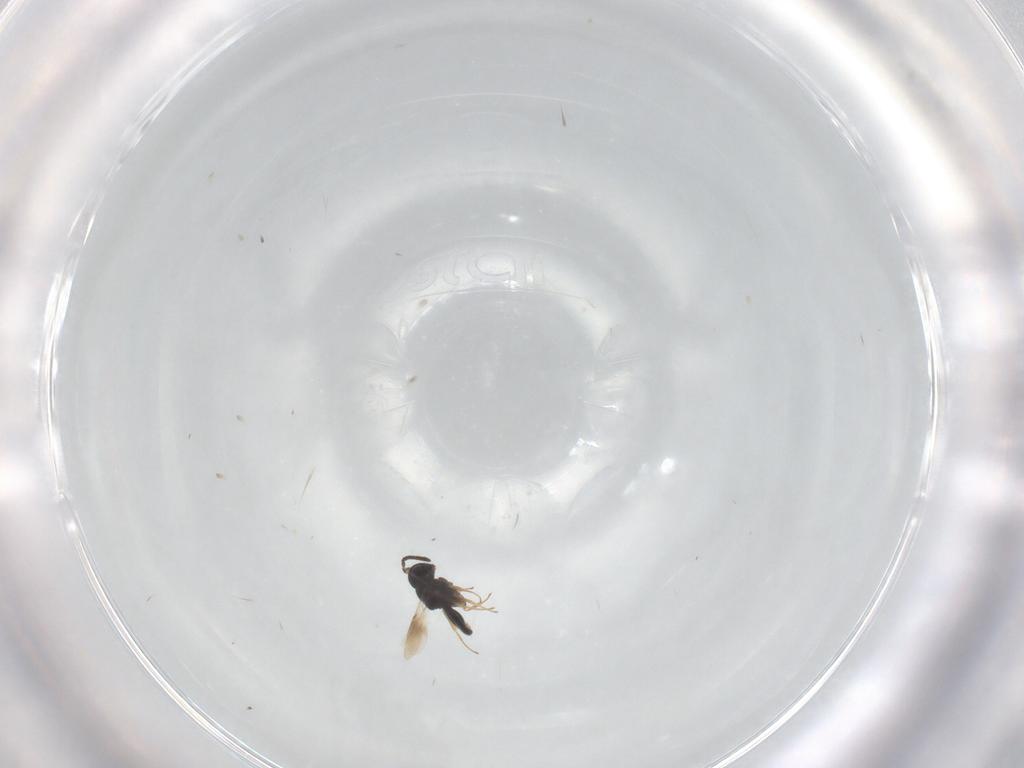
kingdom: Animalia
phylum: Arthropoda
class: Insecta
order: Hymenoptera
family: Scelionidae
